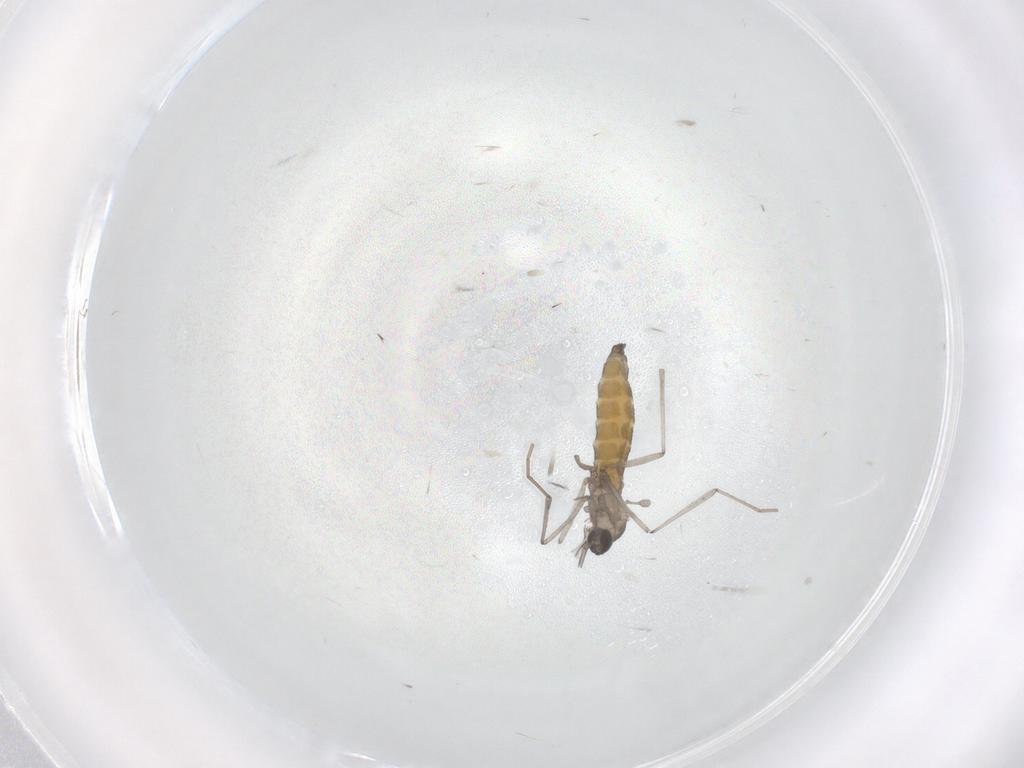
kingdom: Animalia
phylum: Arthropoda
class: Insecta
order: Diptera
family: Cecidomyiidae
